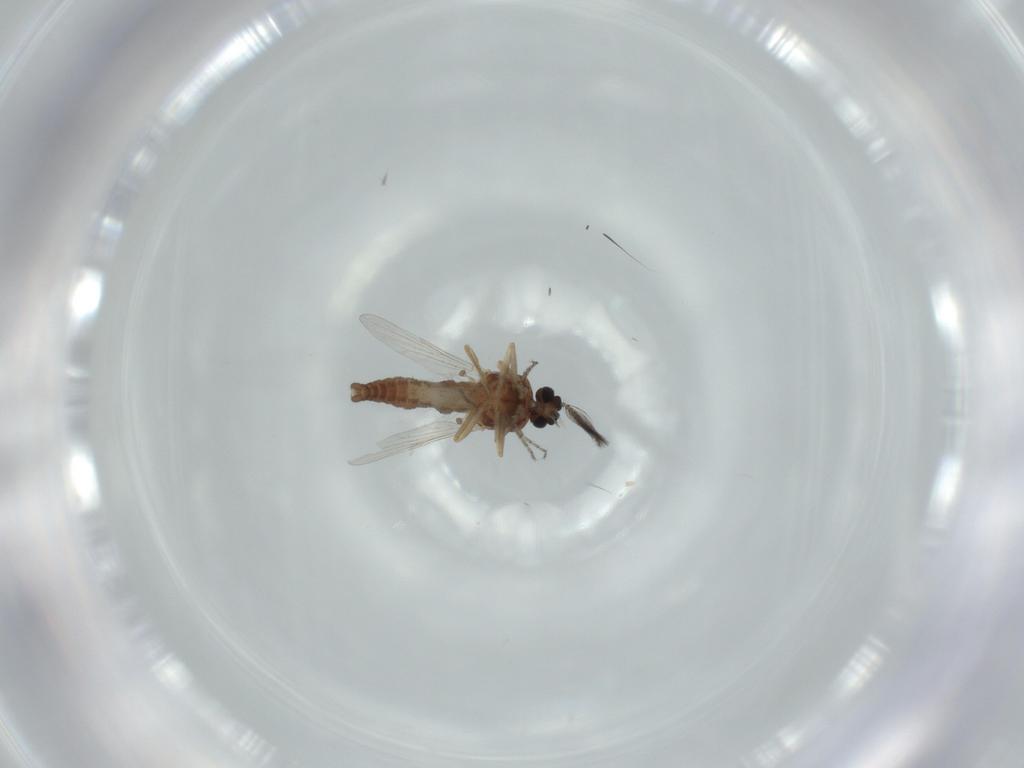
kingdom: Animalia
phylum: Arthropoda
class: Insecta
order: Diptera
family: Ceratopogonidae
